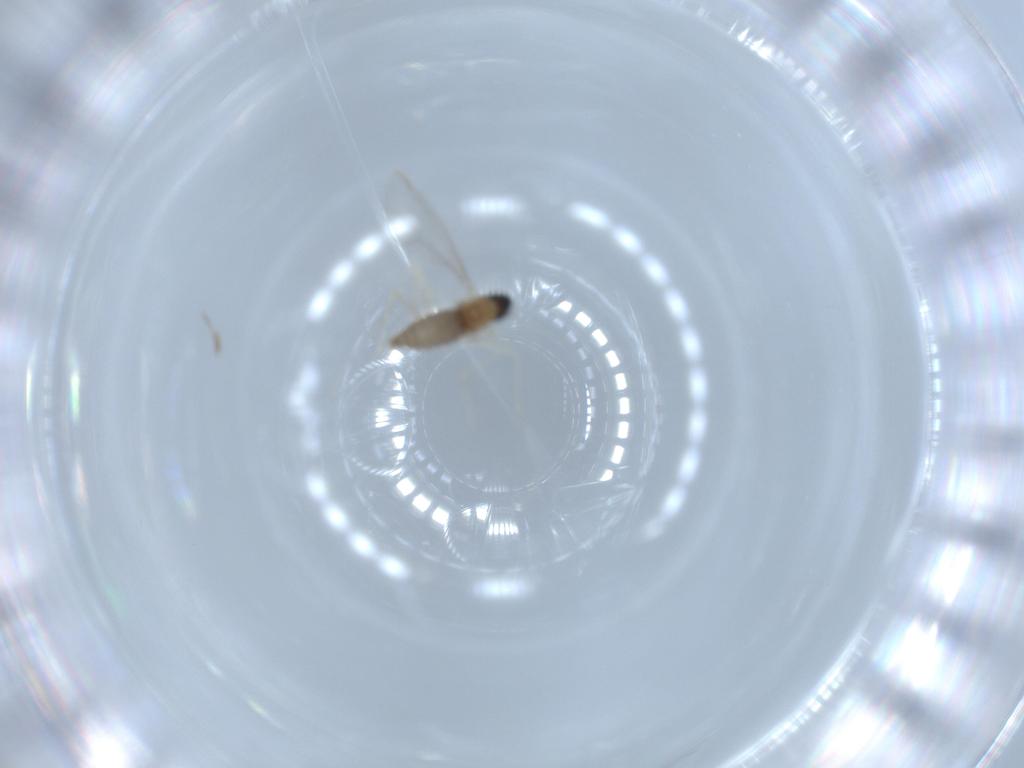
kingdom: Animalia
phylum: Arthropoda
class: Insecta
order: Diptera
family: Cecidomyiidae
